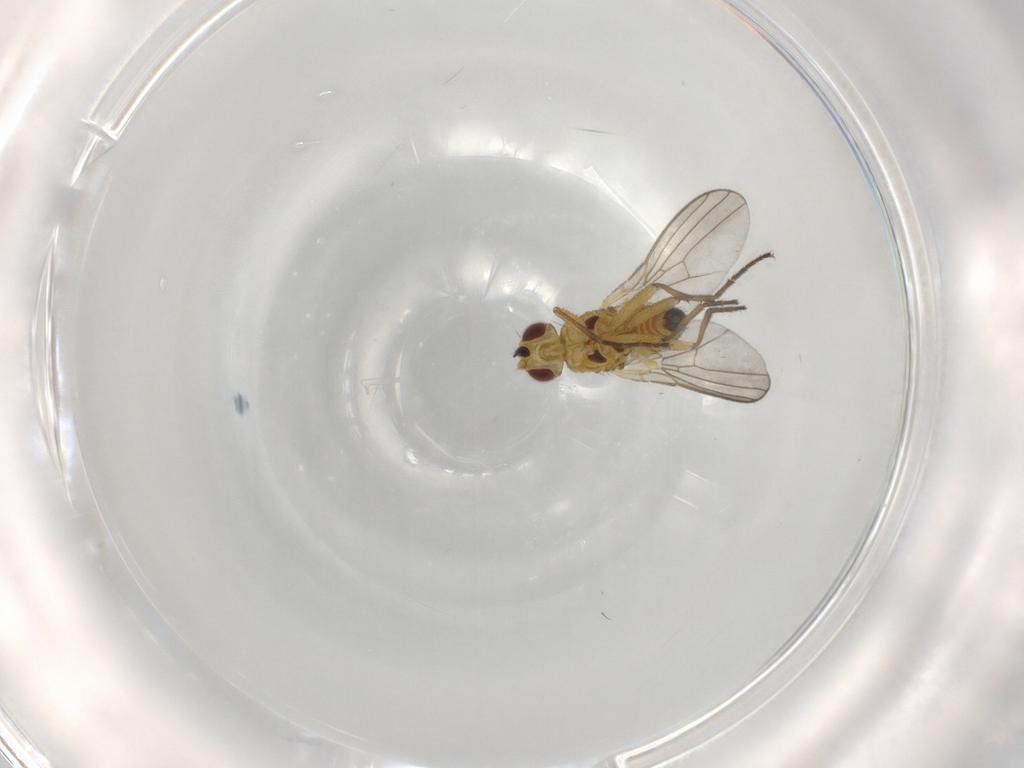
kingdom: Animalia
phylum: Arthropoda
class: Insecta
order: Diptera
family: Agromyzidae
